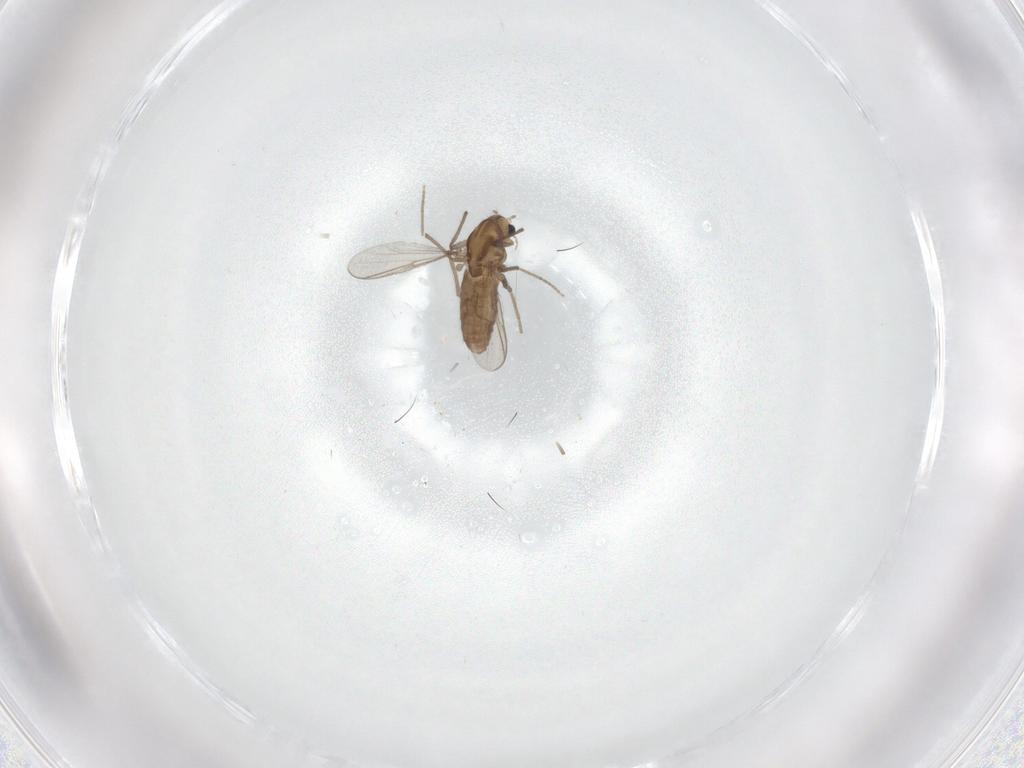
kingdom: Animalia
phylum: Arthropoda
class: Insecta
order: Diptera
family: Chironomidae
